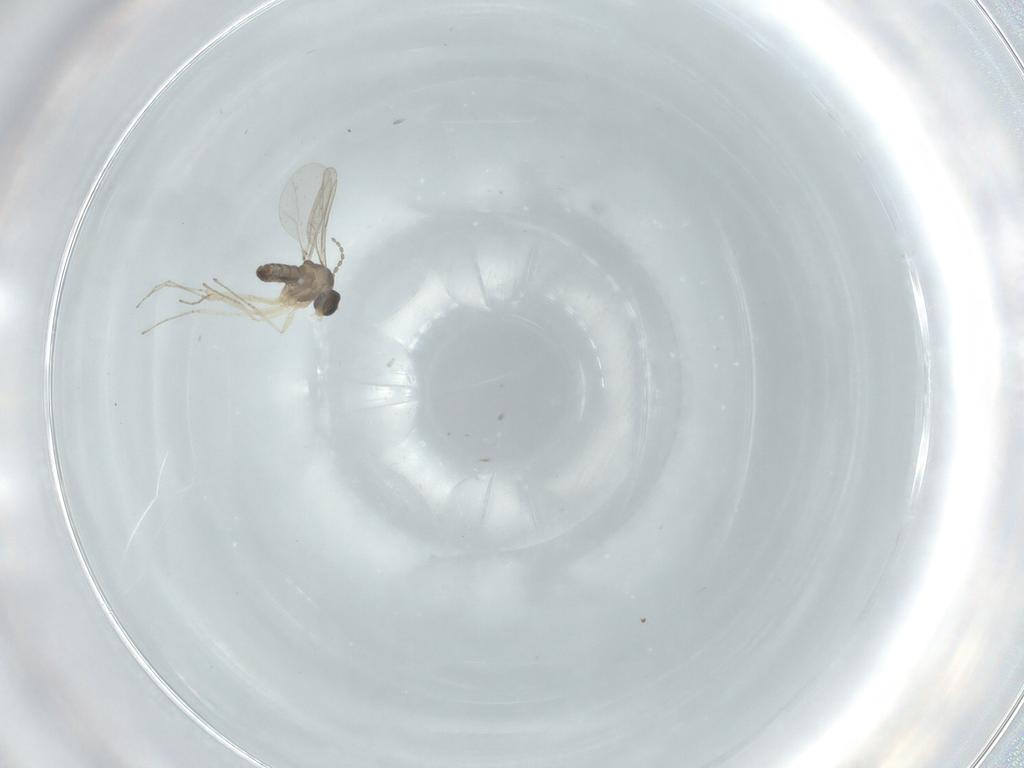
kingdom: Animalia
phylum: Arthropoda
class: Insecta
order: Diptera
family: Cecidomyiidae
